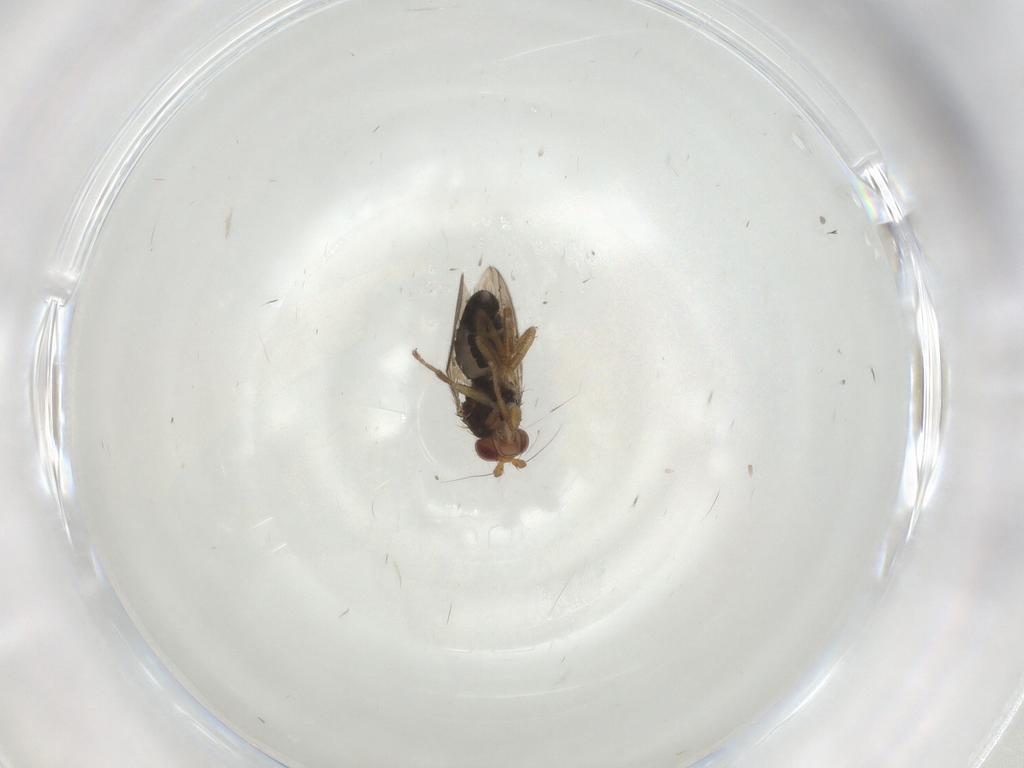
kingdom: Animalia
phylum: Arthropoda
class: Insecta
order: Diptera
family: Sphaeroceridae
